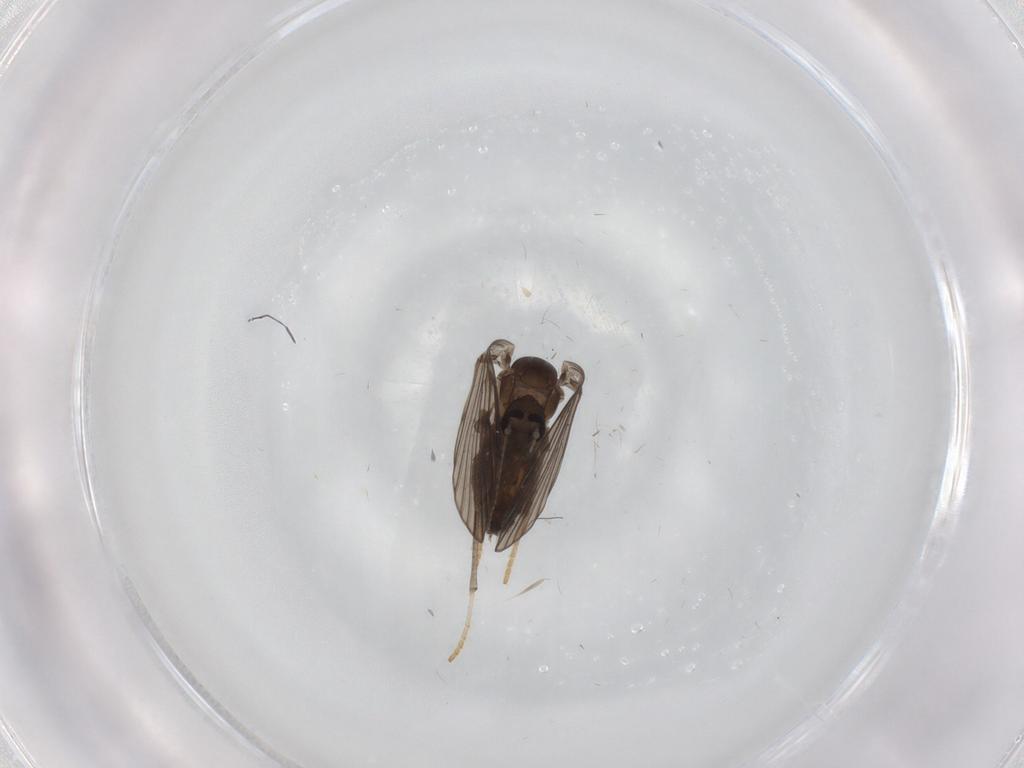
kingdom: Animalia
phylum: Arthropoda
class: Insecta
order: Diptera
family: Psychodidae
